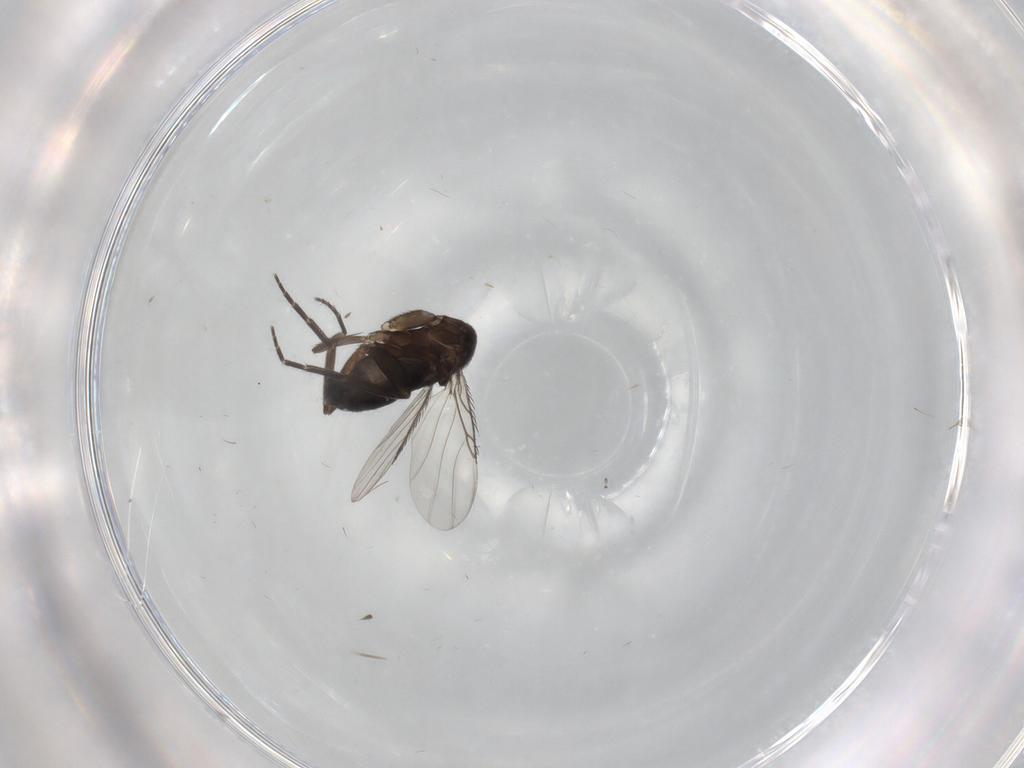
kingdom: Animalia
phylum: Arthropoda
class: Insecta
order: Diptera
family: Phoridae
